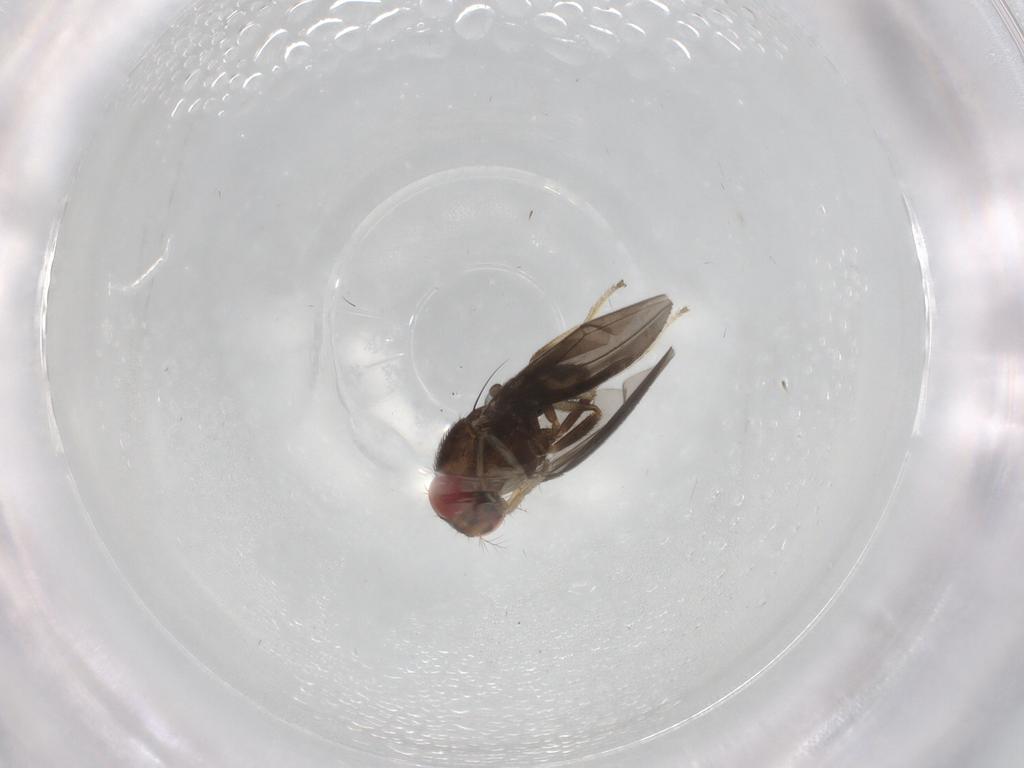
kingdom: Animalia
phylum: Arthropoda
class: Insecta
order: Diptera
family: Drosophilidae
